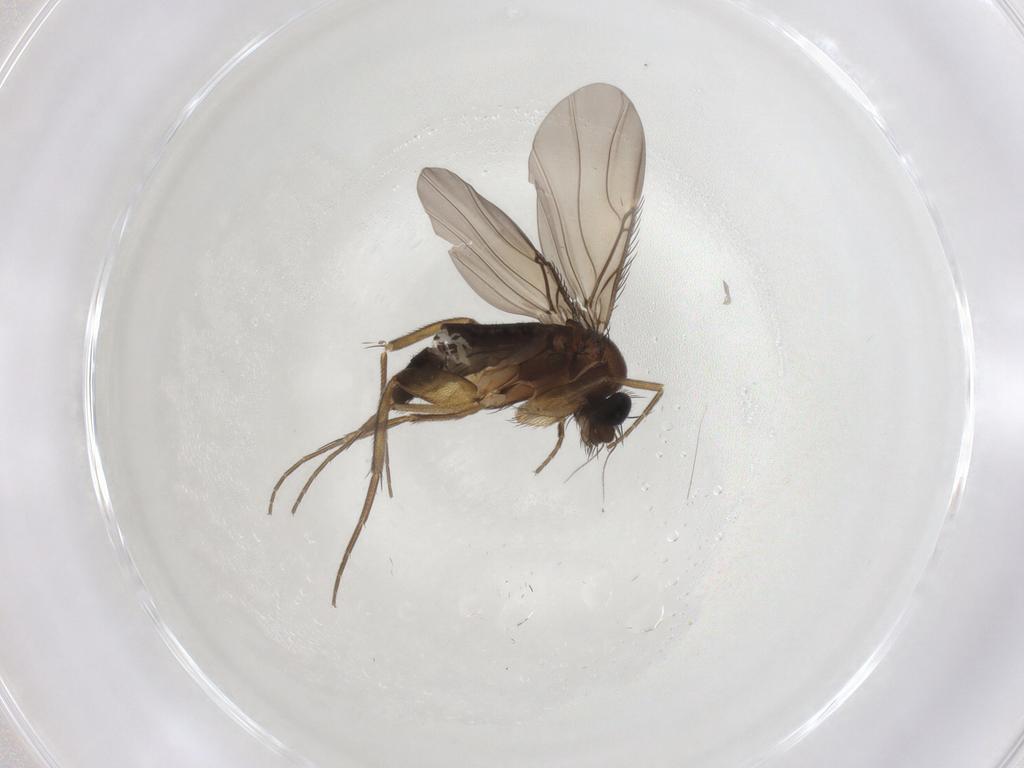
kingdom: Animalia
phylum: Arthropoda
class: Insecta
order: Diptera
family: Phoridae
